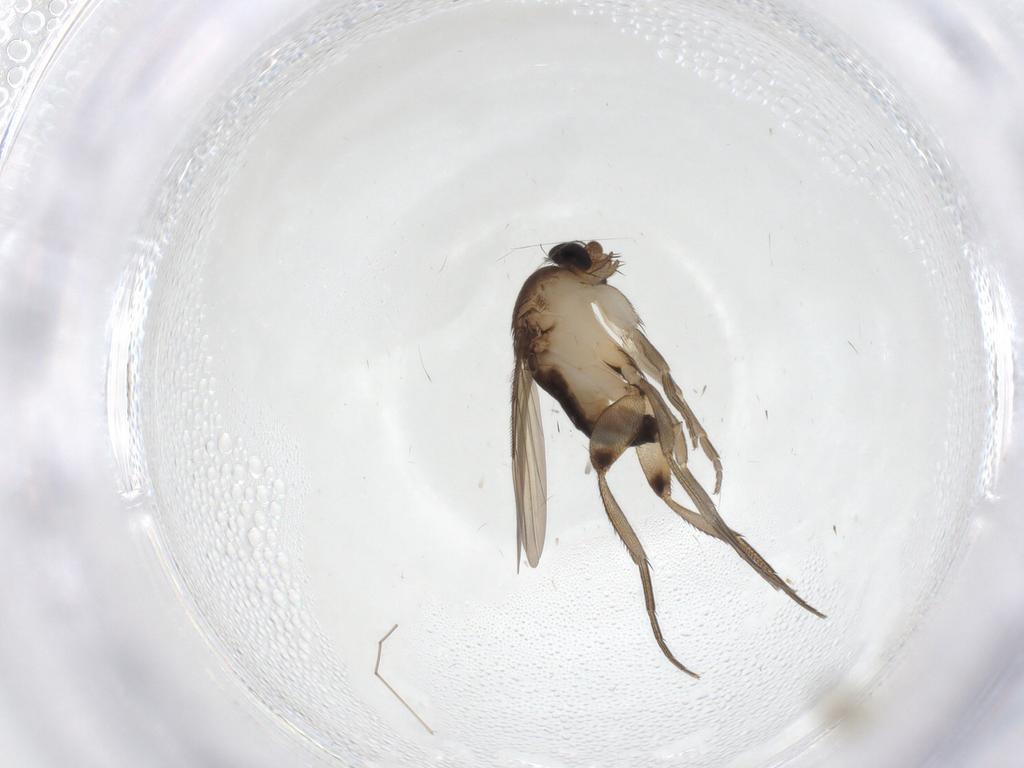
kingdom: Animalia
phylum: Arthropoda
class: Insecta
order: Diptera
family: Phoridae
